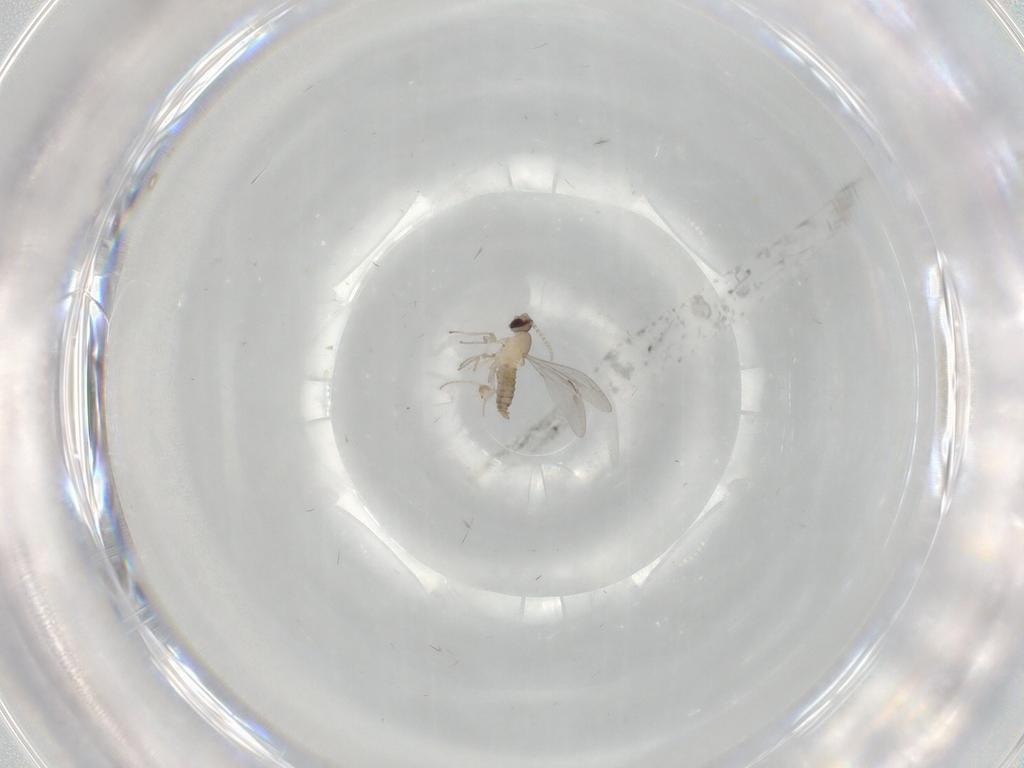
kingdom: Animalia
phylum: Arthropoda
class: Insecta
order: Diptera
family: Cecidomyiidae
